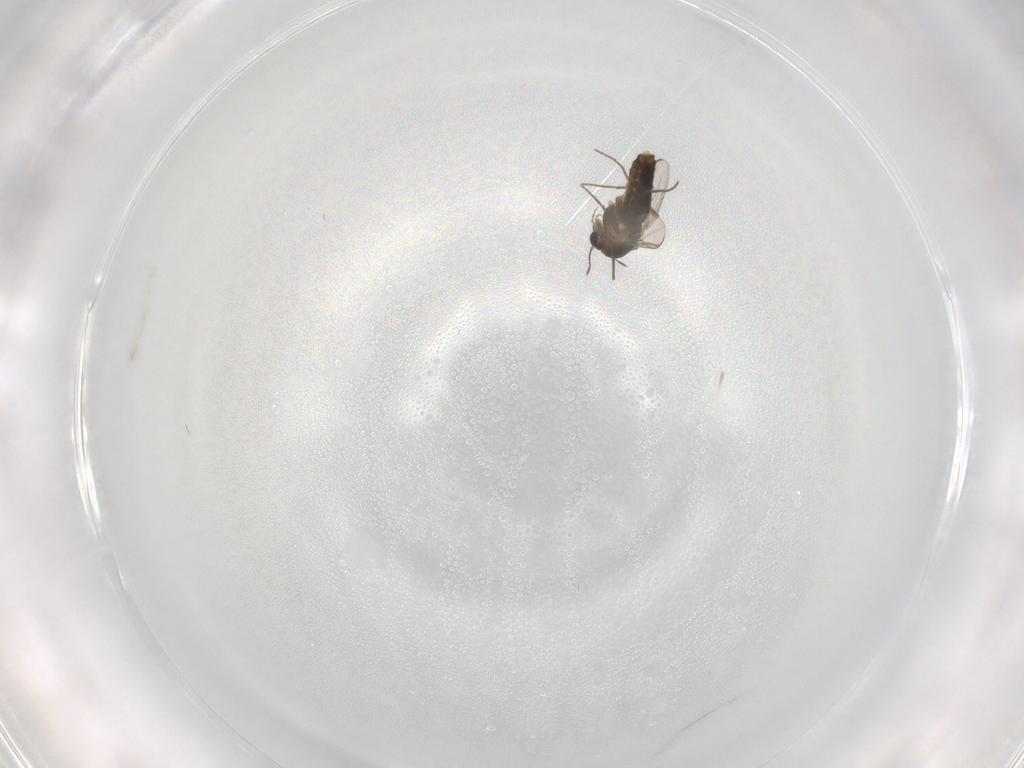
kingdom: Animalia
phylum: Arthropoda
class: Insecta
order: Diptera
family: Chironomidae
